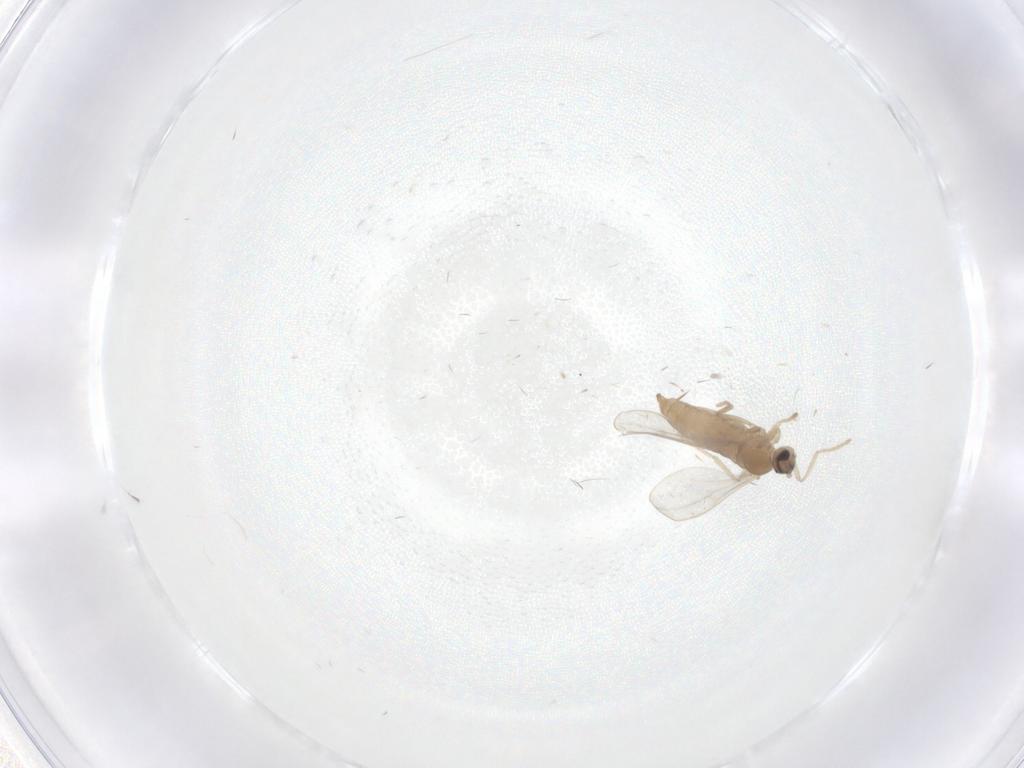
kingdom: Animalia
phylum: Arthropoda
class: Insecta
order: Diptera
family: Cecidomyiidae
